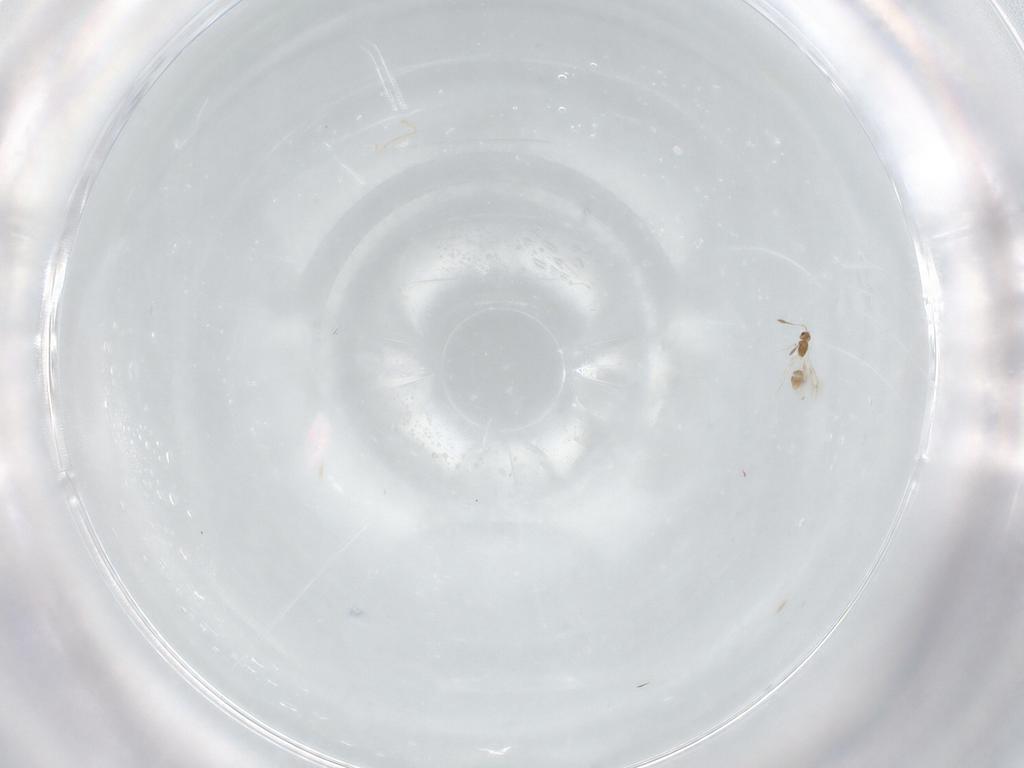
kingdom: Animalia
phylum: Arthropoda
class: Insecta
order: Hymenoptera
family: Mymarommatidae
